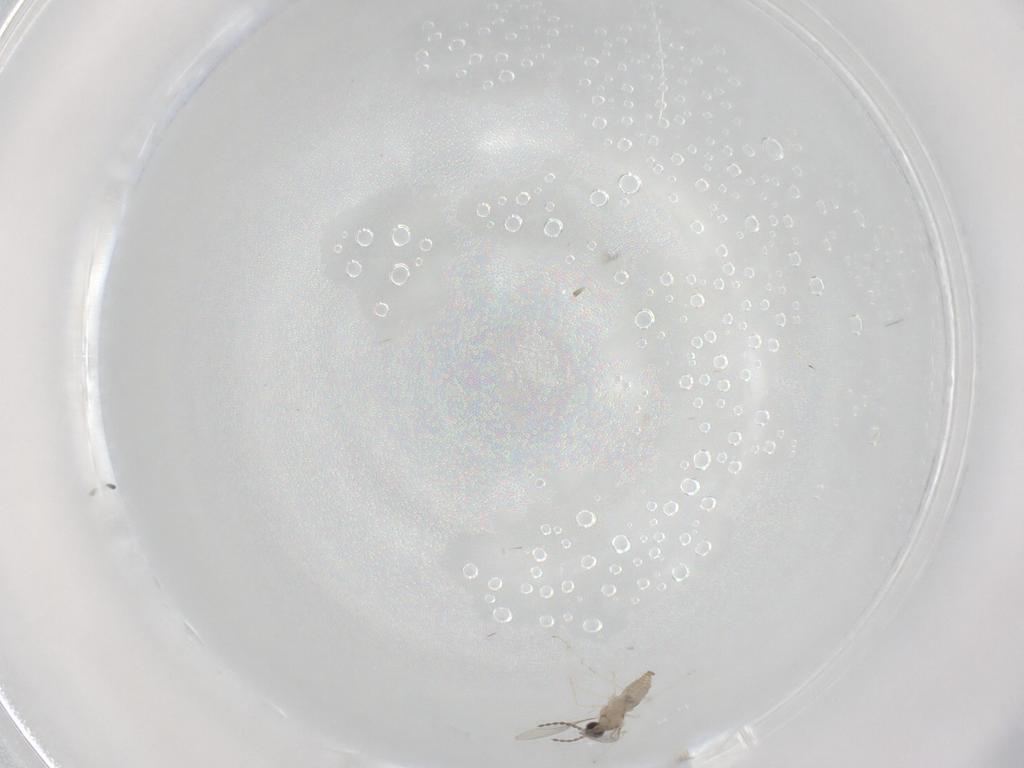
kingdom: Animalia
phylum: Arthropoda
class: Insecta
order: Diptera
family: Cecidomyiidae
